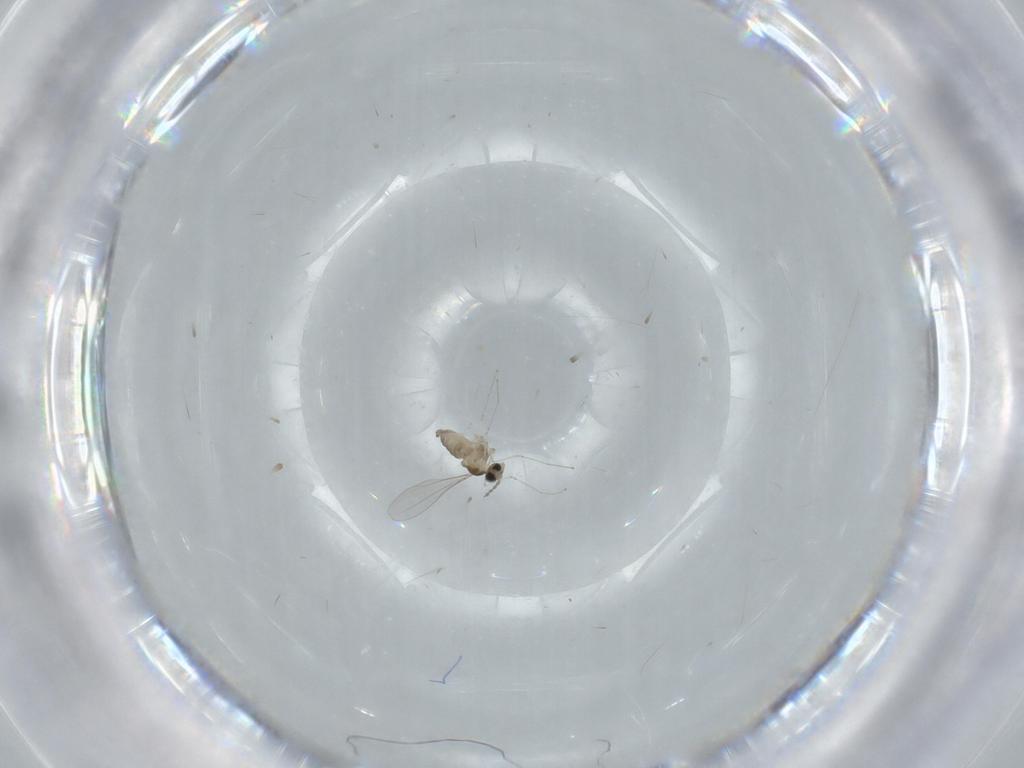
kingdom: Animalia
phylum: Arthropoda
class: Insecta
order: Diptera
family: Cecidomyiidae
